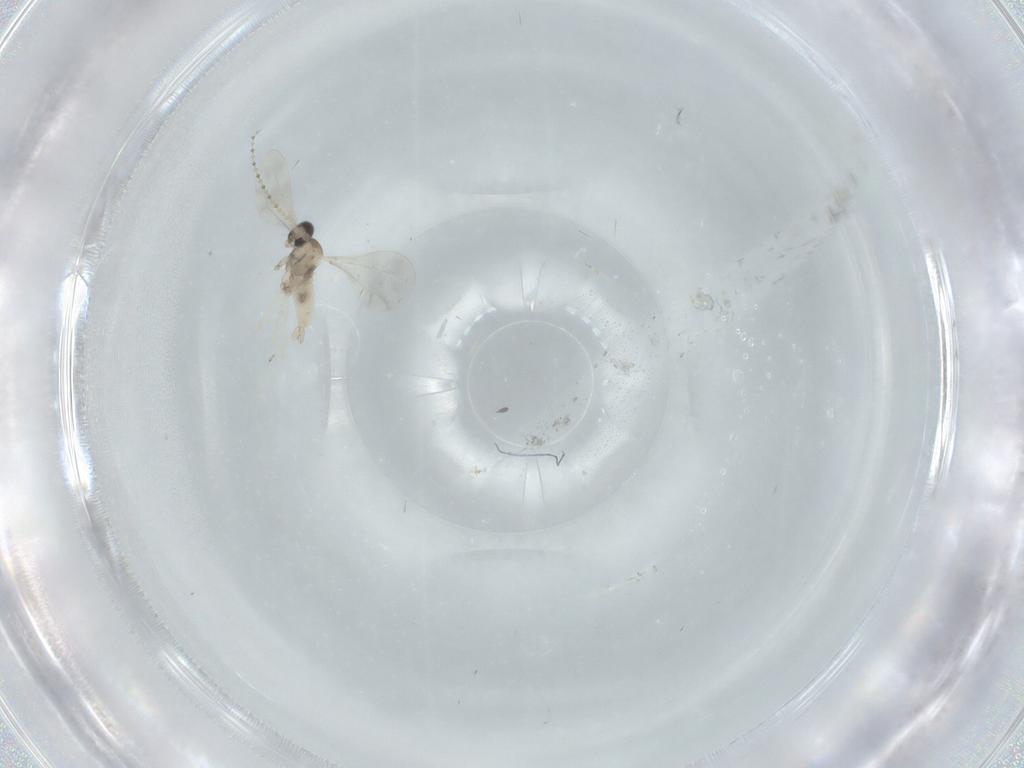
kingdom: Animalia
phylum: Arthropoda
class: Insecta
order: Diptera
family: Cecidomyiidae
